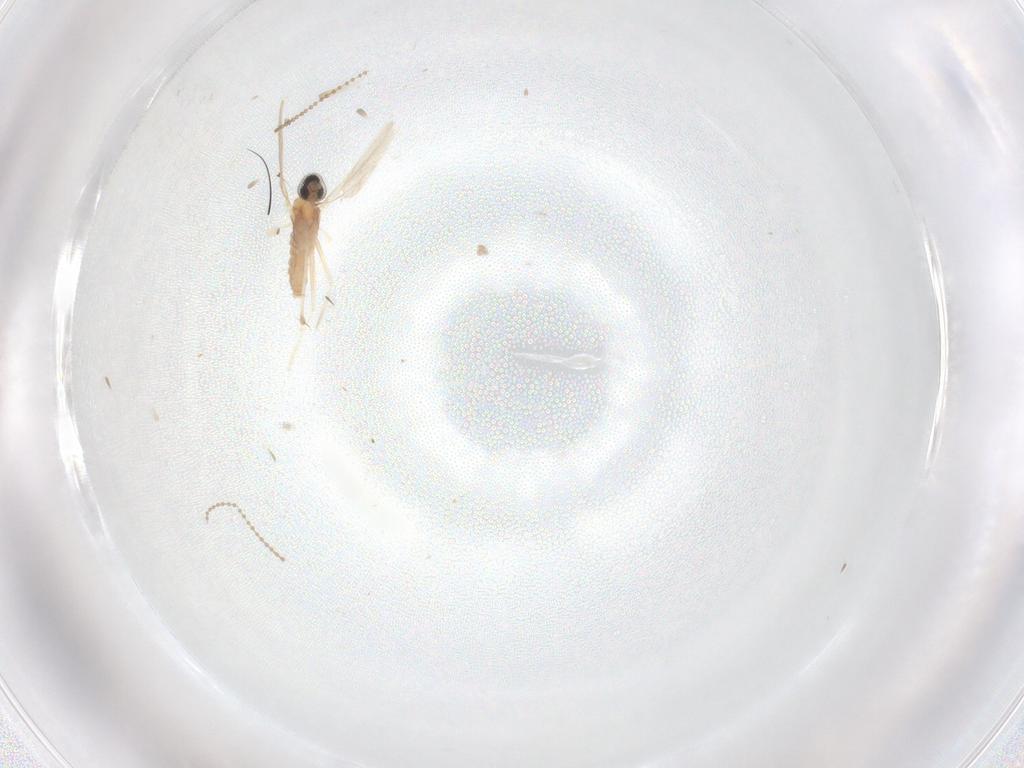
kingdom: Animalia
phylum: Arthropoda
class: Insecta
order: Diptera
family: Cecidomyiidae
